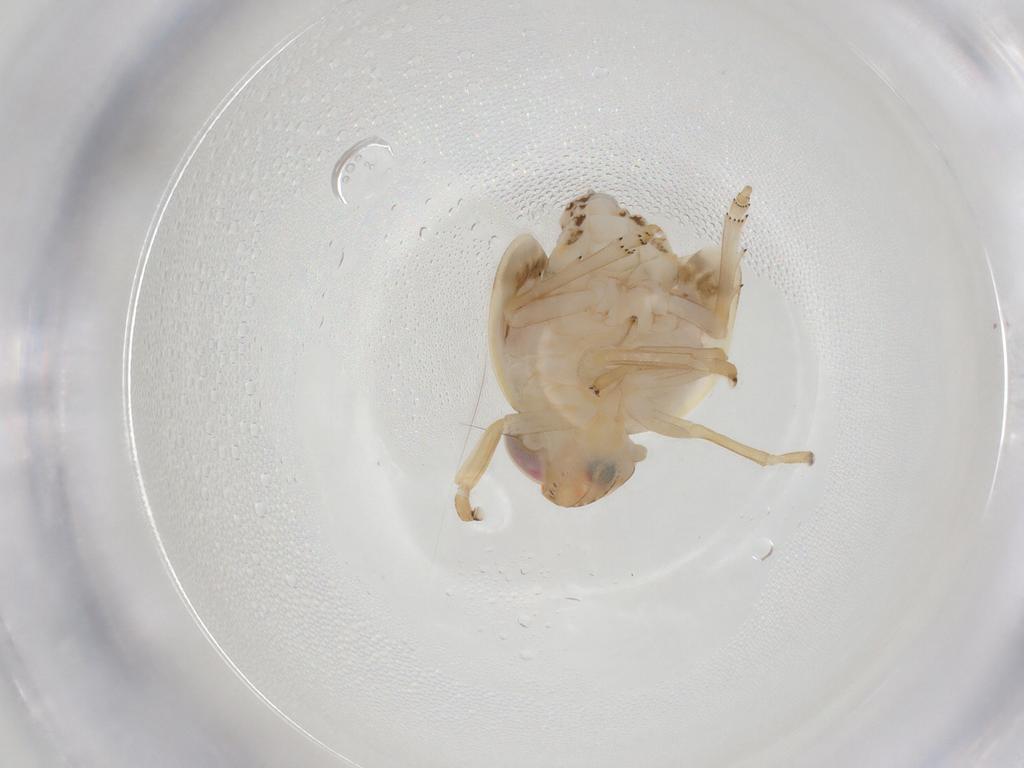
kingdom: Animalia
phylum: Arthropoda
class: Insecta
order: Hemiptera
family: Nogodinidae
